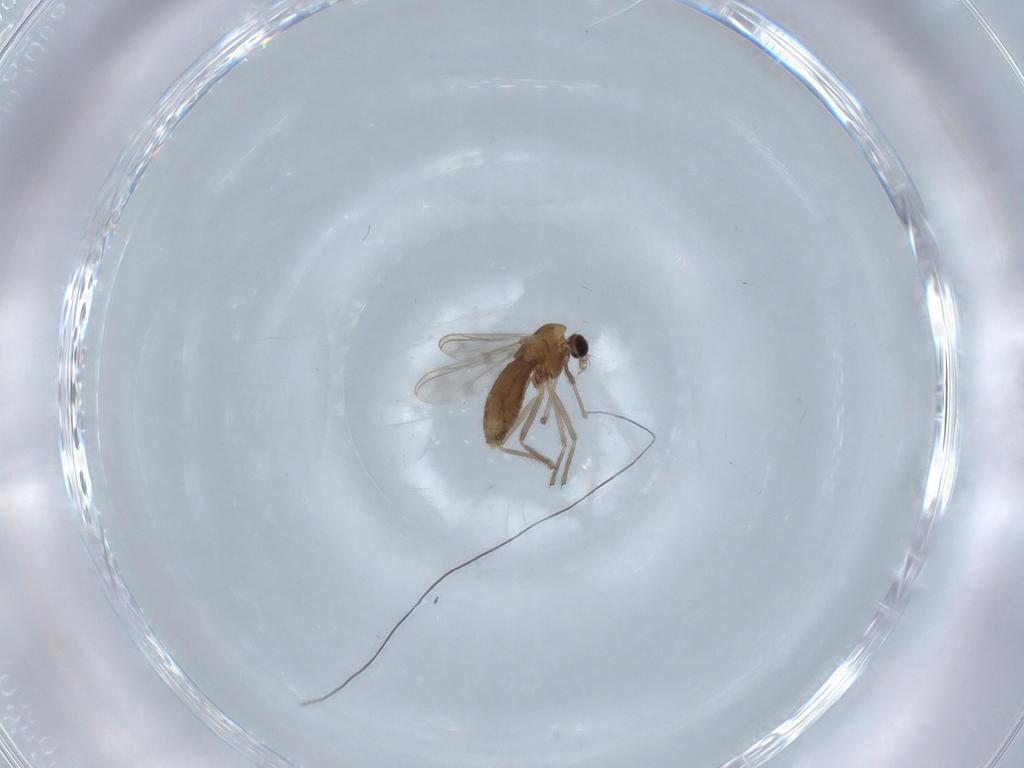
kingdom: Animalia
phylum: Arthropoda
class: Insecta
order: Diptera
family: Chironomidae
